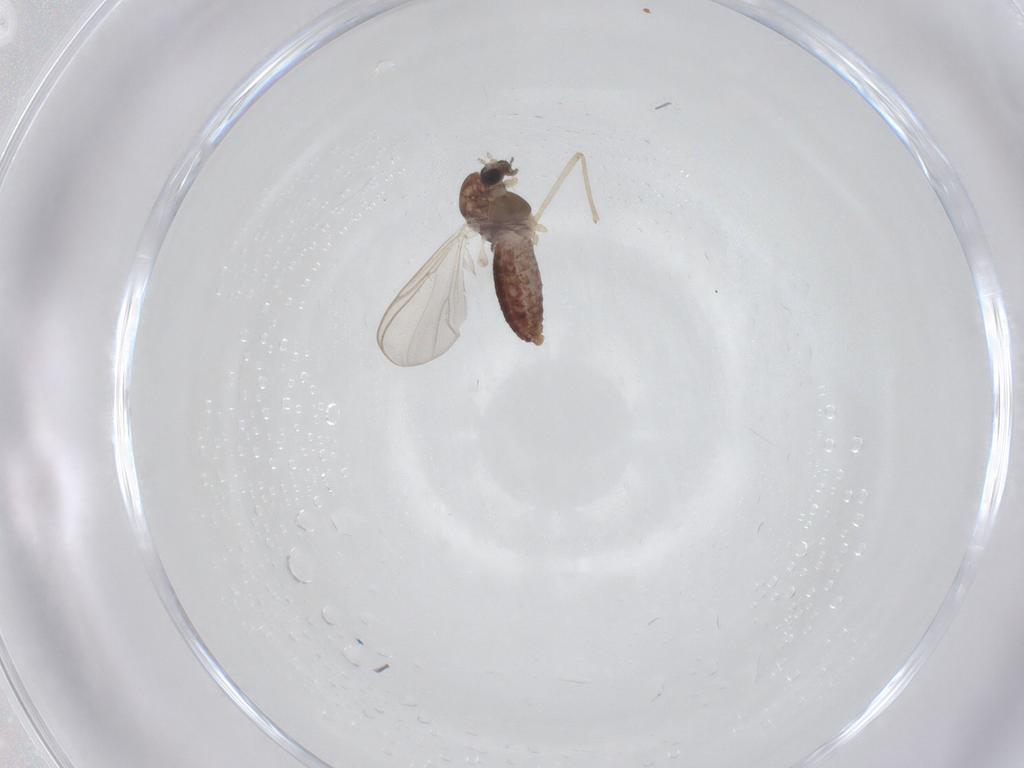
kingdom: Animalia
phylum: Arthropoda
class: Insecta
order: Diptera
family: Chironomidae
